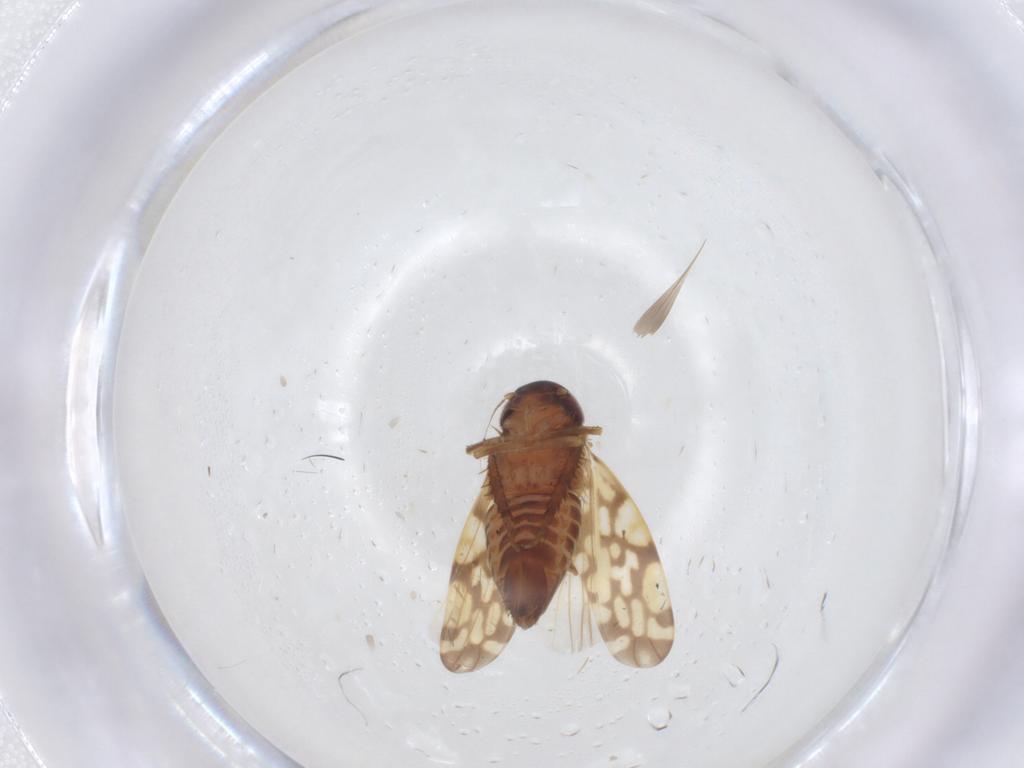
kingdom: Animalia
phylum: Arthropoda
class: Insecta
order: Hemiptera
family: Cicadellidae
